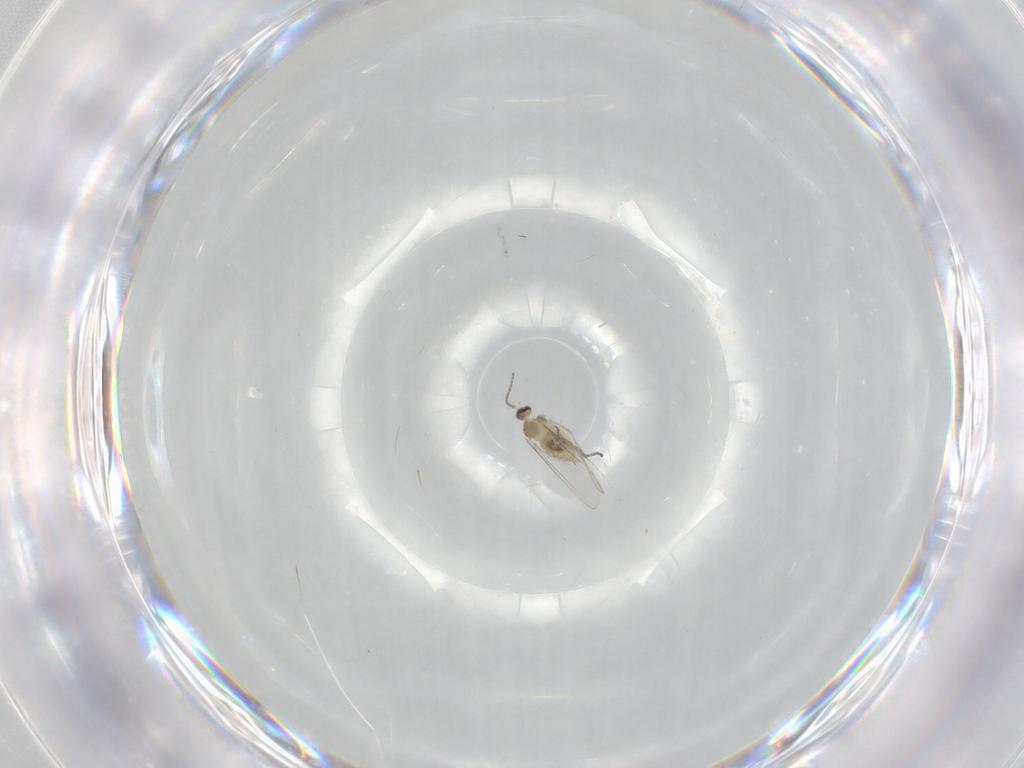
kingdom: Animalia
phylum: Arthropoda
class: Insecta
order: Diptera
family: Cecidomyiidae
